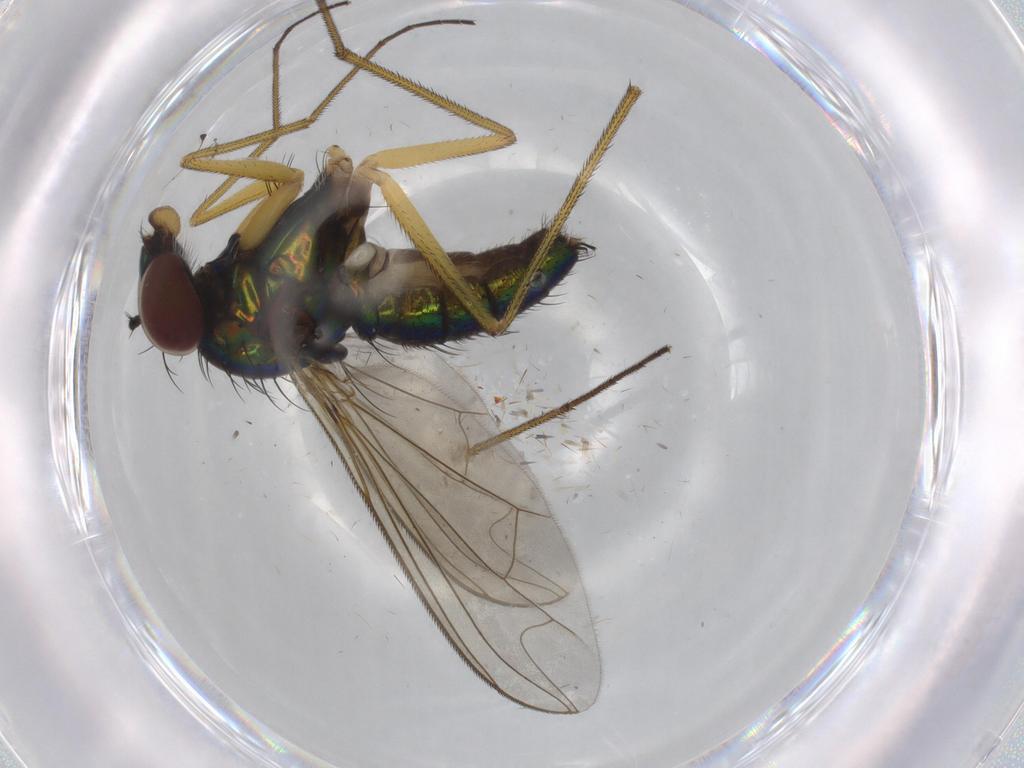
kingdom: Animalia
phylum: Arthropoda
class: Insecta
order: Diptera
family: Dolichopodidae
